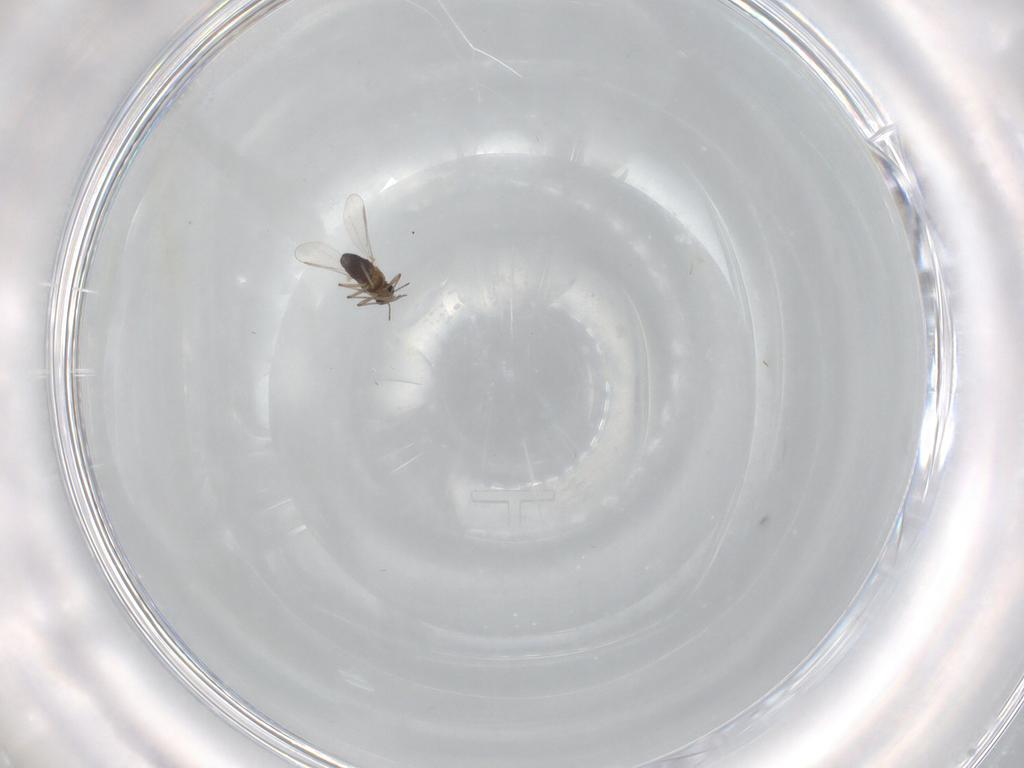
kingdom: Animalia
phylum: Arthropoda
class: Insecta
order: Diptera
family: Chironomidae
